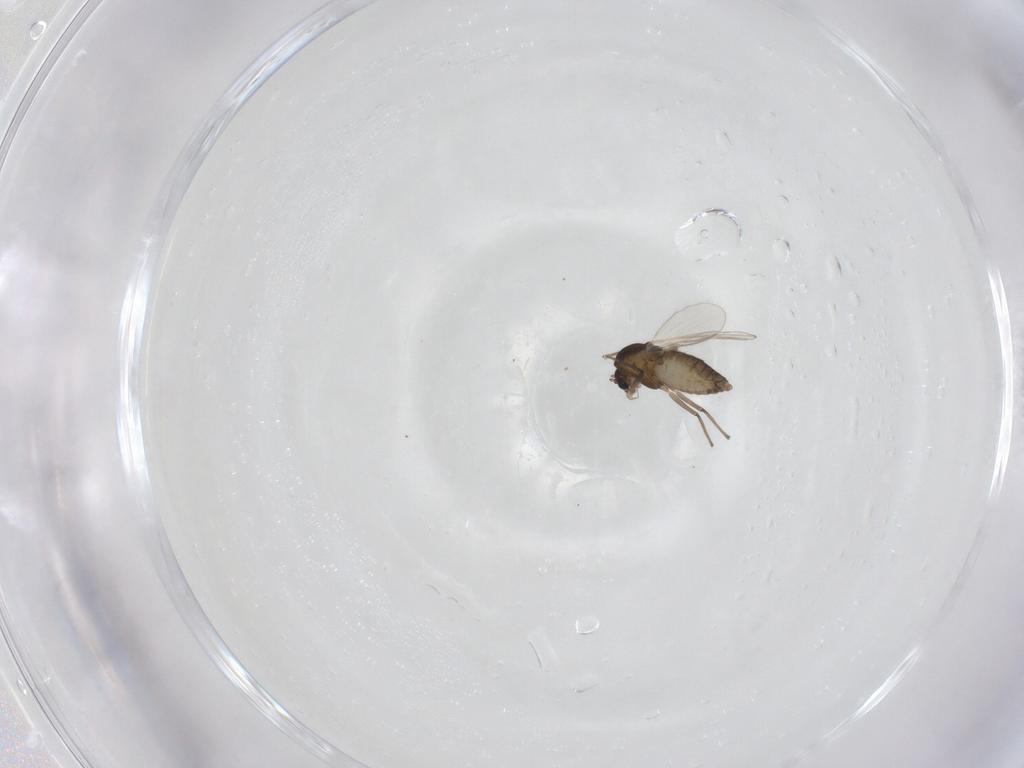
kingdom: Animalia
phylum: Arthropoda
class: Insecta
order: Diptera
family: Chironomidae
